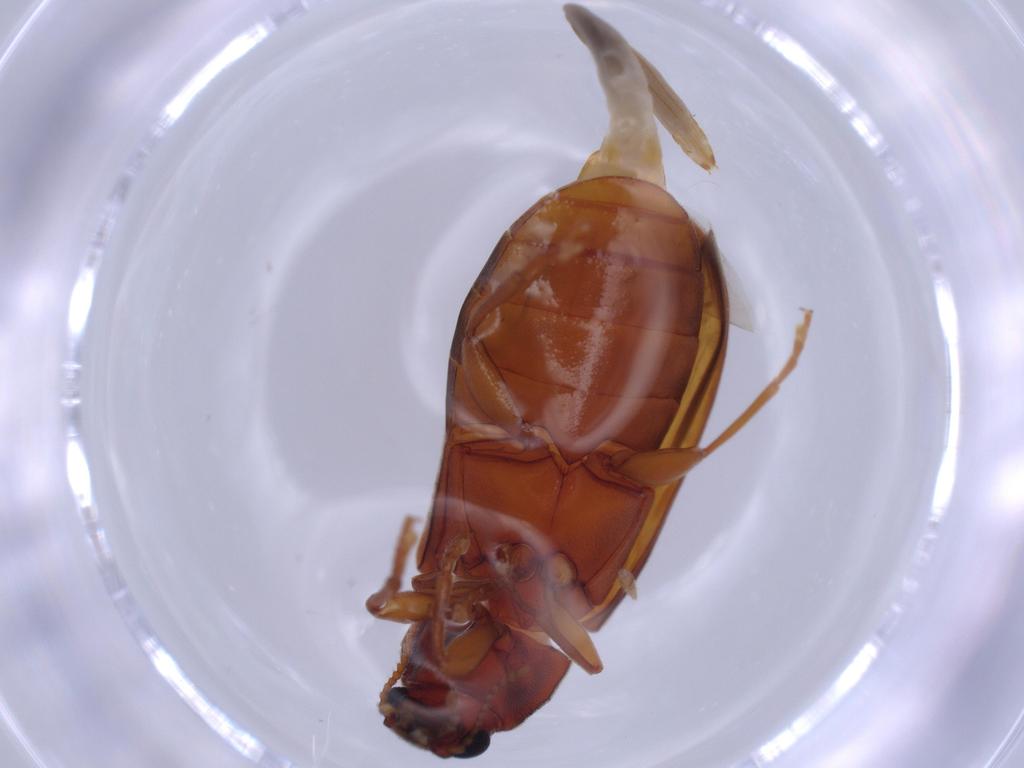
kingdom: Animalia
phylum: Arthropoda
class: Insecta
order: Coleoptera
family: Mycteridae
